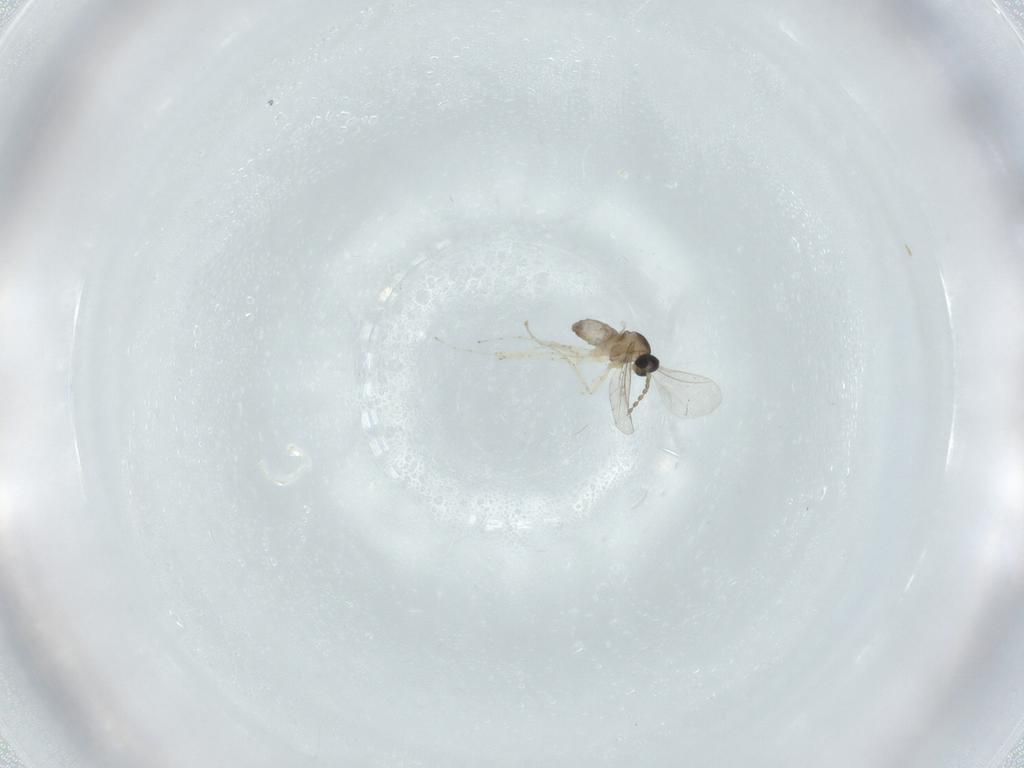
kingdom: Animalia
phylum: Arthropoda
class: Insecta
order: Diptera
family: Cecidomyiidae
